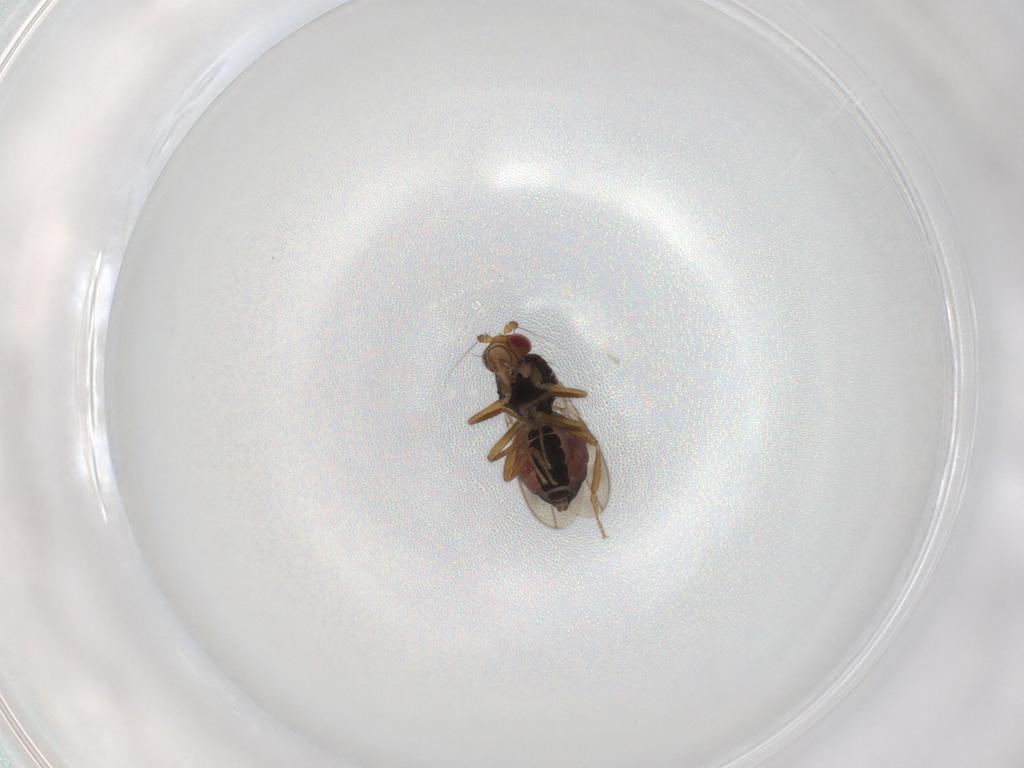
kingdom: Animalia
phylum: Arthropoda
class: Insecta
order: Diptera
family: Sphaeroceridae
